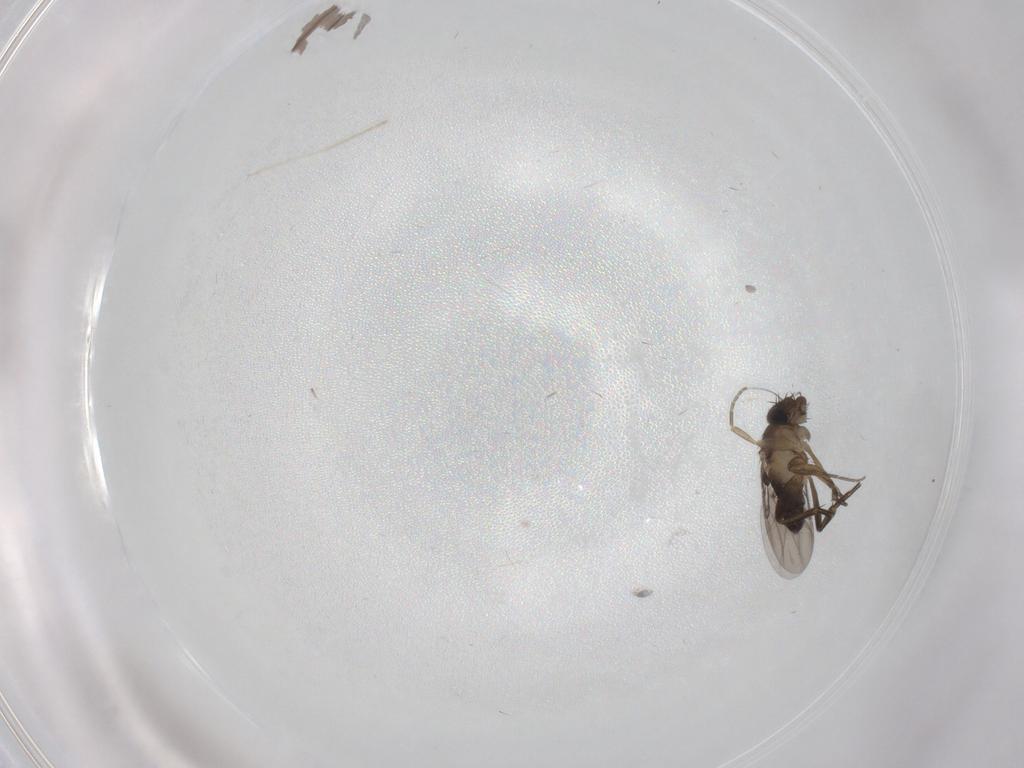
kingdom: Animalia
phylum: Arthropoda
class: Insecta
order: Diptera
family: Phoridae
